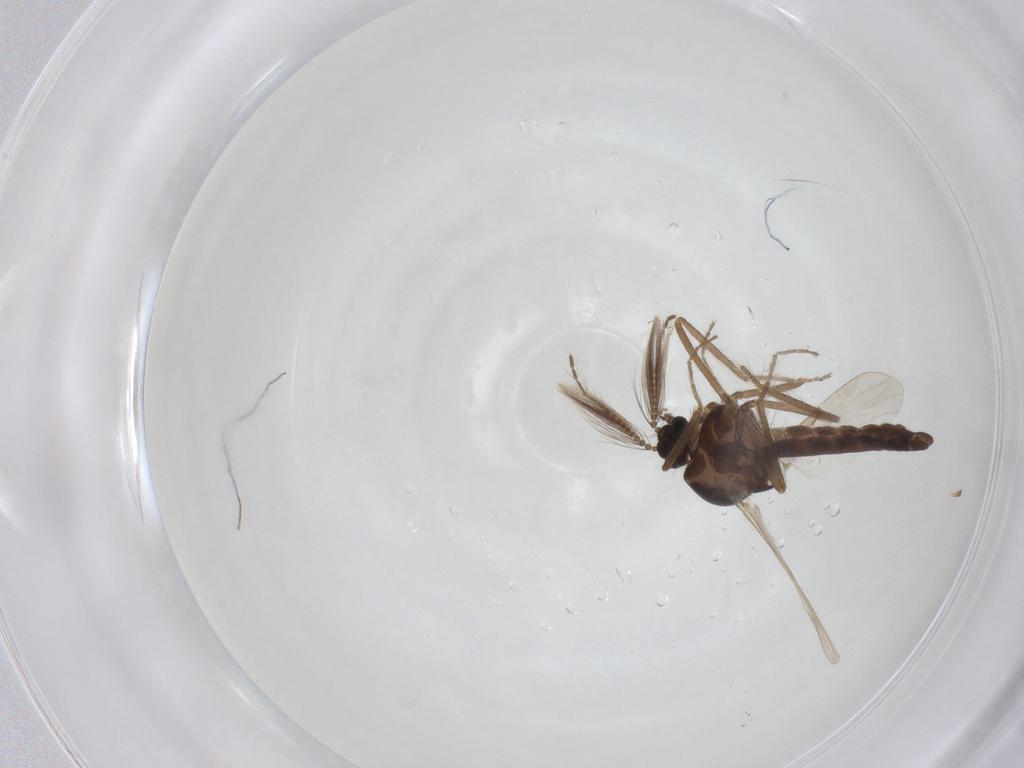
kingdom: Animalia
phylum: Arthropoda
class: Insecta
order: Diptera
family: Ceratopogonidae
